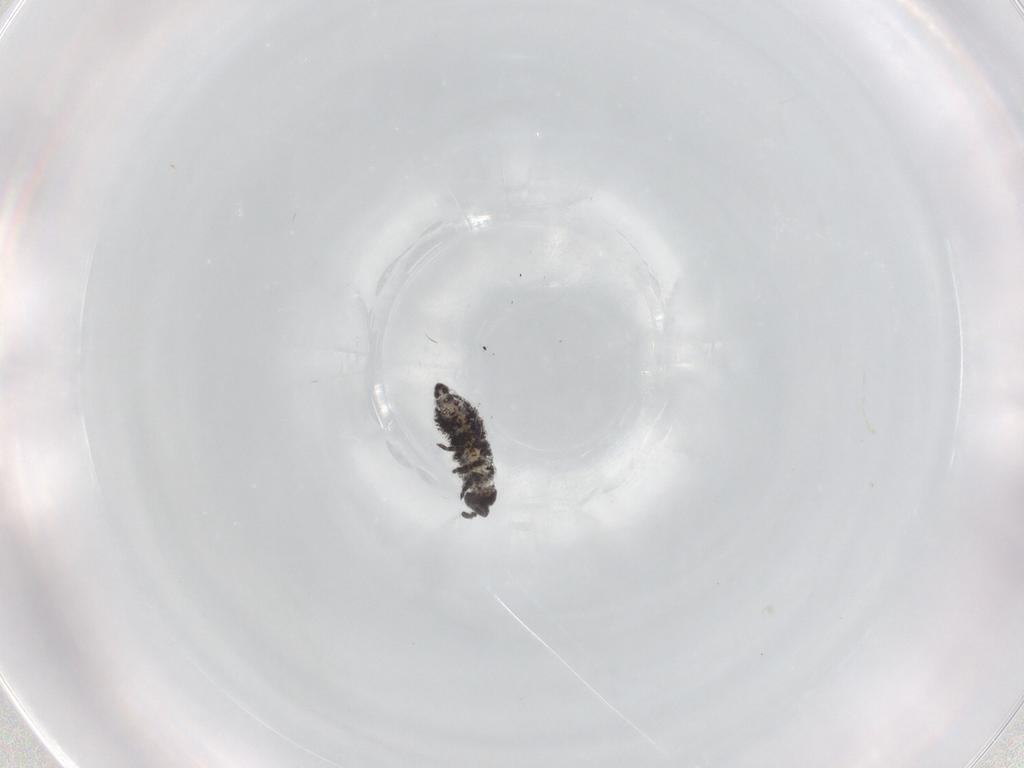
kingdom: Animalia
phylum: Arthropoda
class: Collembola
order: Poduromorpha
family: Hypogastruridae
